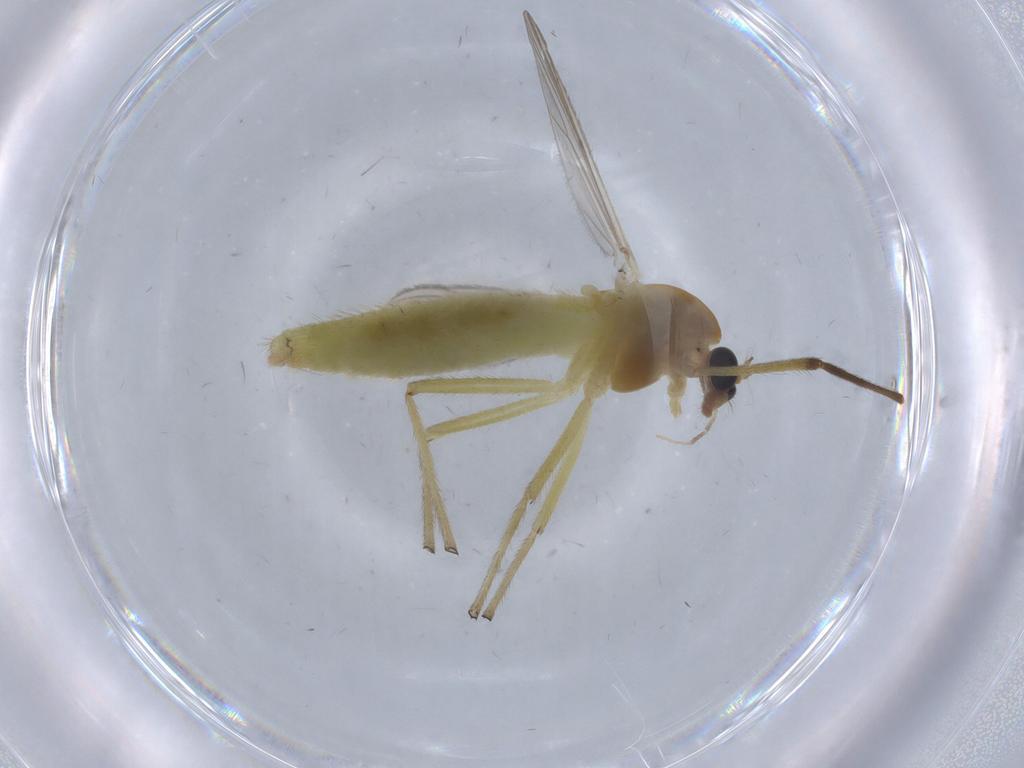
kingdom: Animalia
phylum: Arthropoda
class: Insecta
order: Diptera
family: Chironomidae
